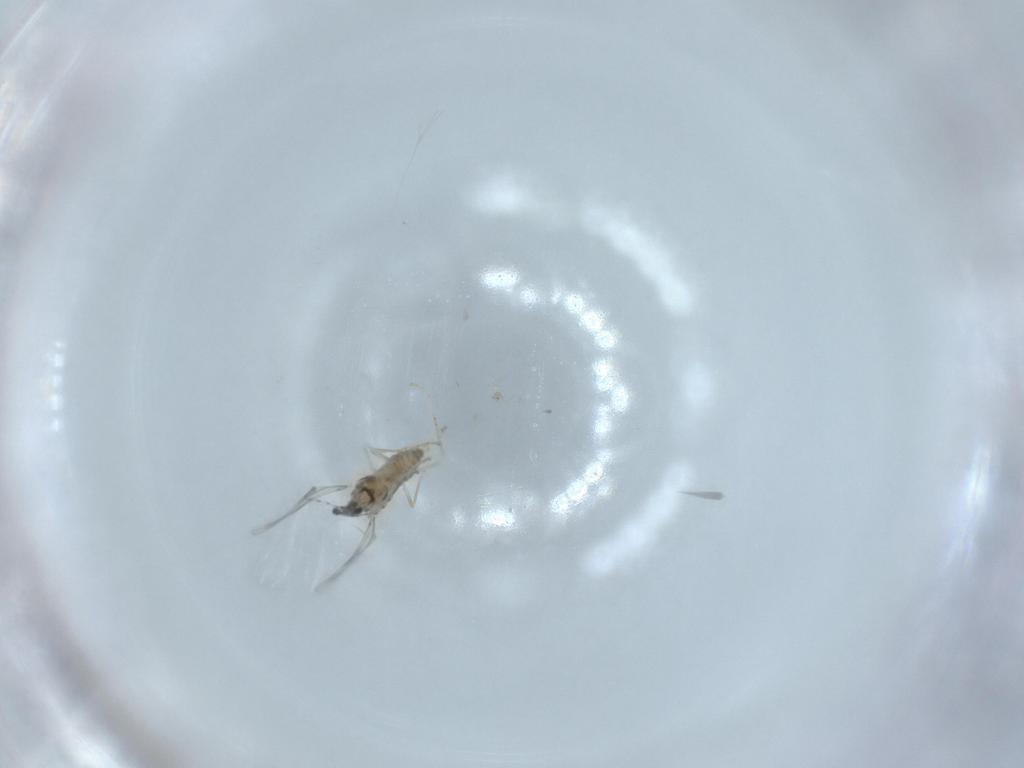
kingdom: Animalia
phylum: Arthropoda
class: Insecta
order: Diptera
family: Cecidomyiidae
